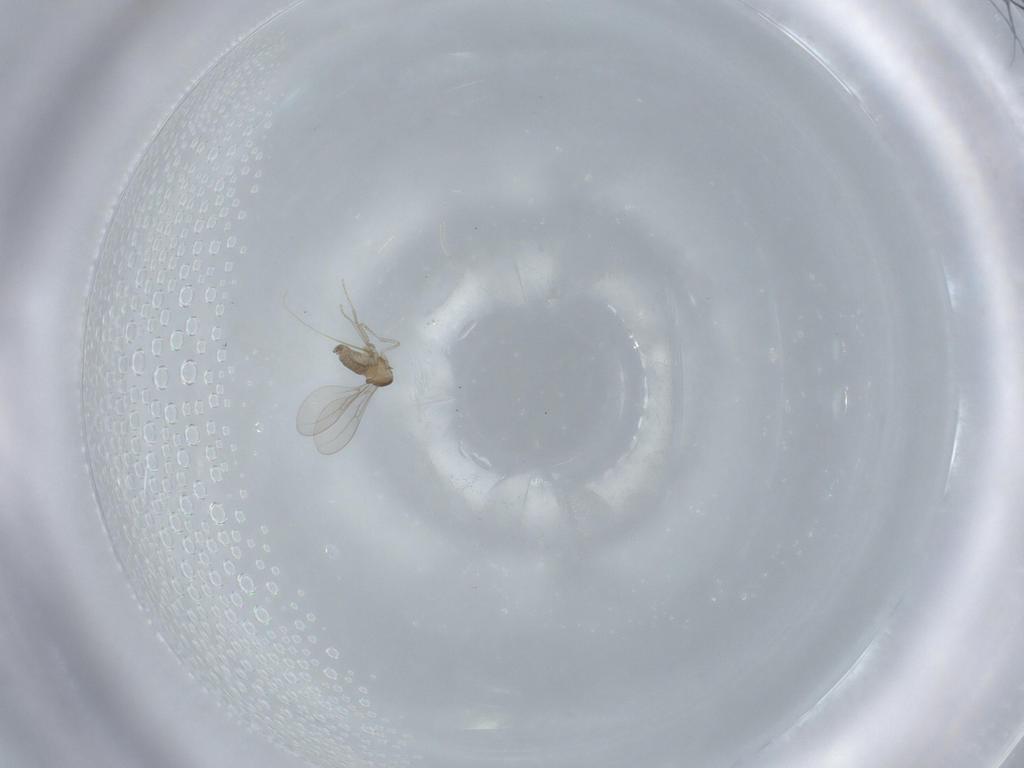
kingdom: Animalia
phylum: Arthropoda
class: Insecta
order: Diptera
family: Cecidomyiidae
